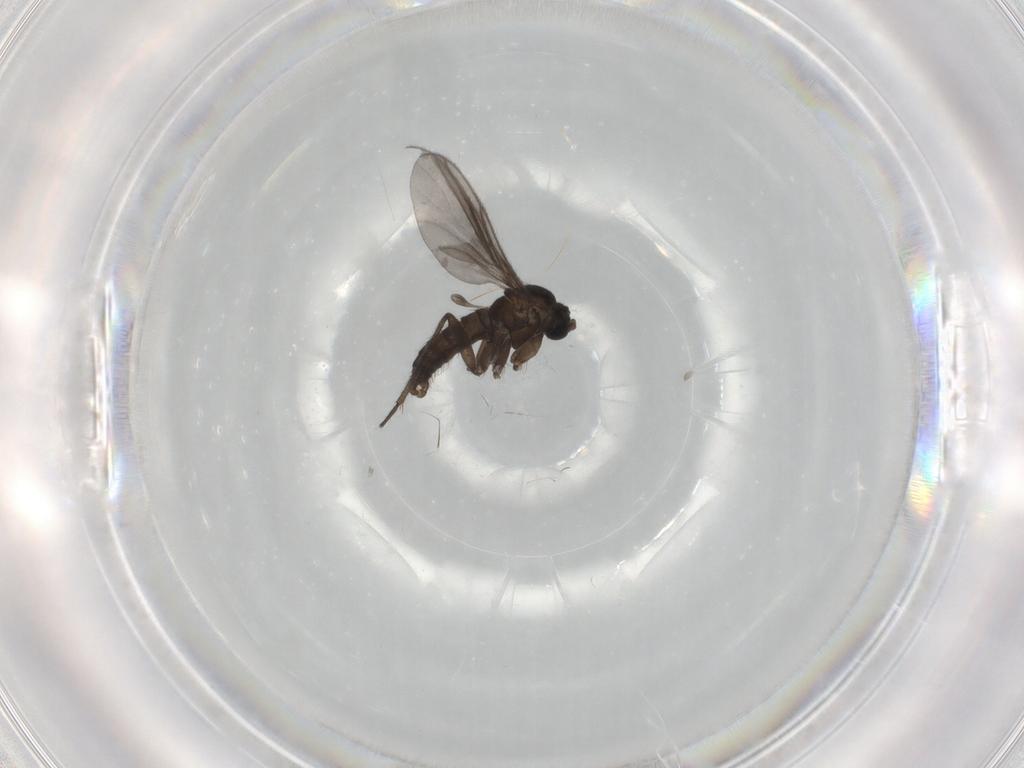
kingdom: Animalia
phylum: Arthropoda
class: Insecta
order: Diptera
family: Sciaridae
